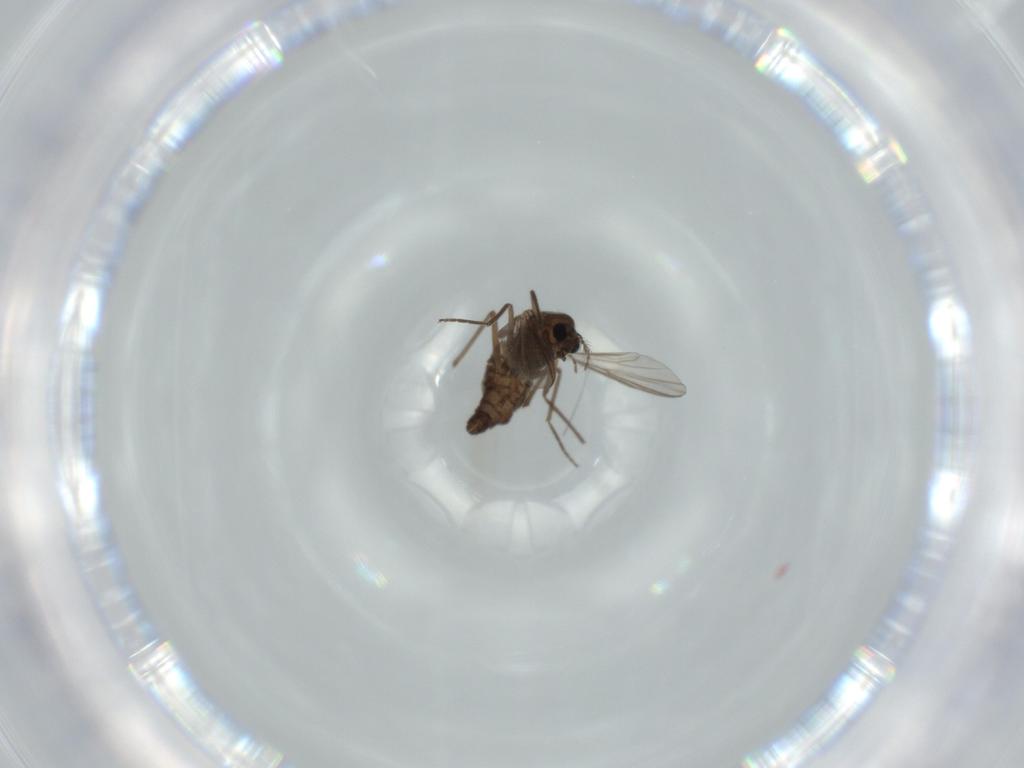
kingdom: Animalia
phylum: Arthropoda
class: Insecta
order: Diptera
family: Chironomidae
